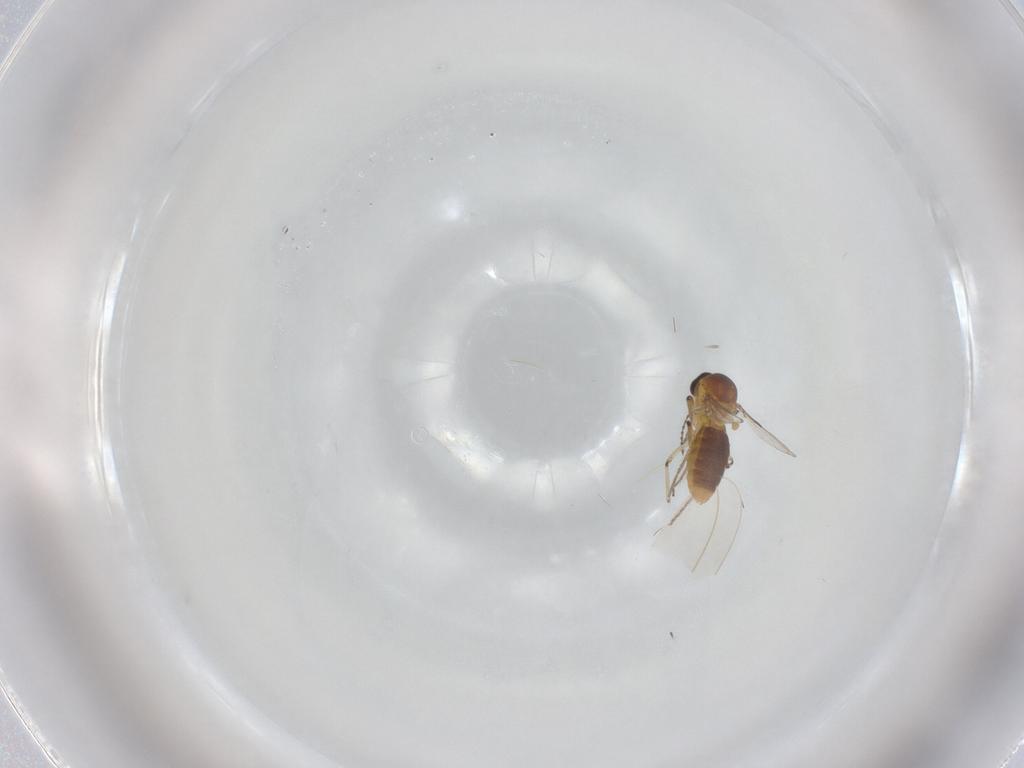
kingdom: Animalia
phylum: Arthropoda
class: Insecta
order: Diptera
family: Ceratopogonidae
